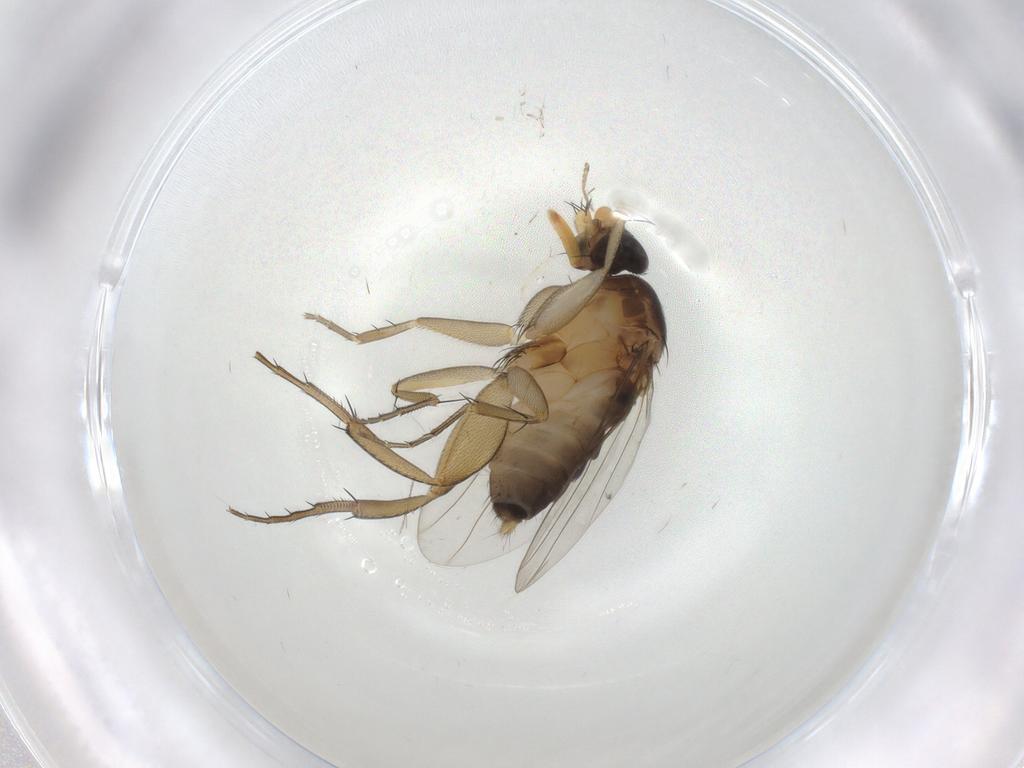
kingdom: Animalia
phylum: Arthropoda
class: Insecta
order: Diptera
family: Phoridae
